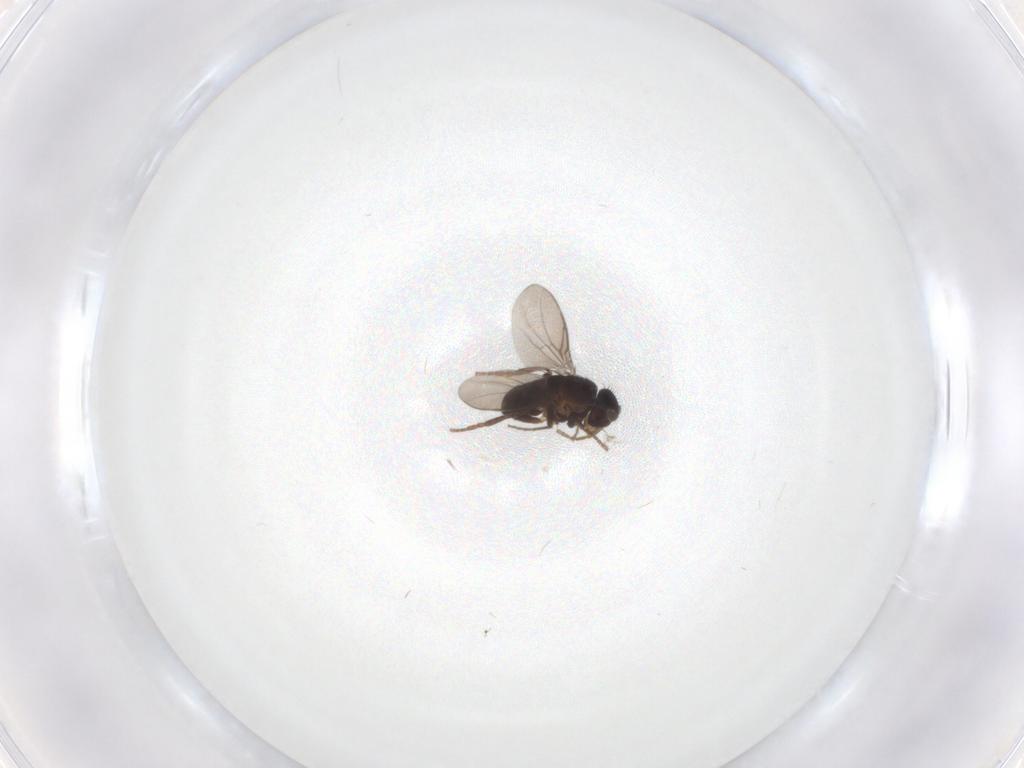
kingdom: Animalia
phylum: Arthropoda
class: Insecta
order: Diptera
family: Sphaeroceridae
